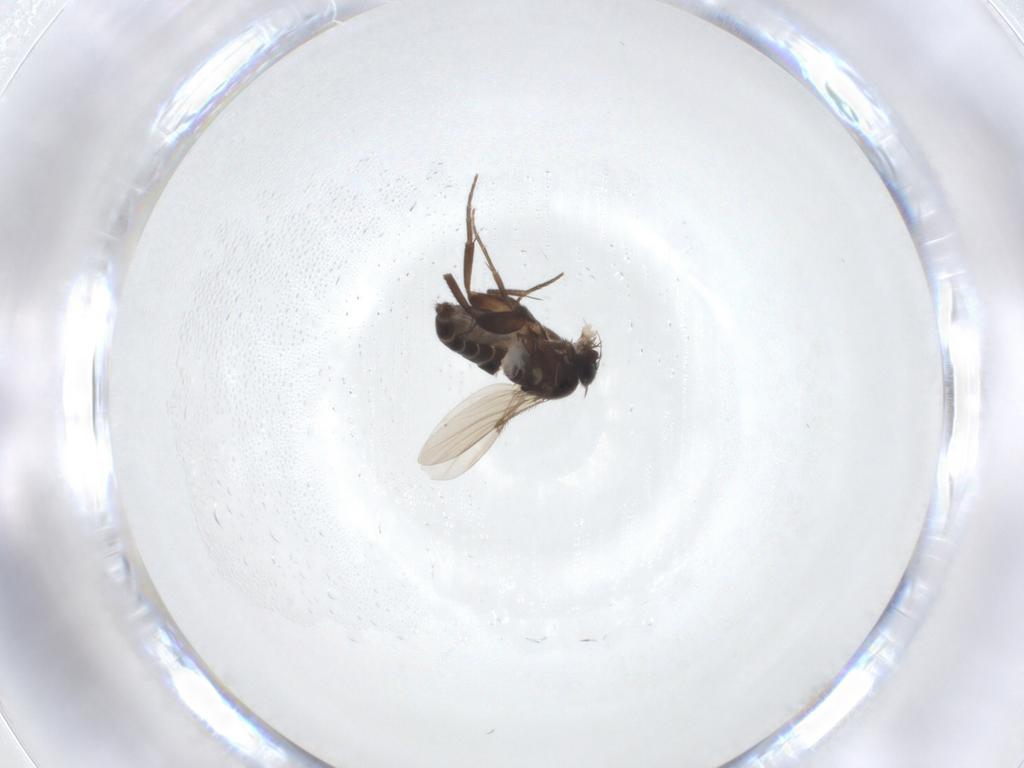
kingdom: Animalia
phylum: Arthropoda
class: Insecta
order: Diptera
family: Phoridae
